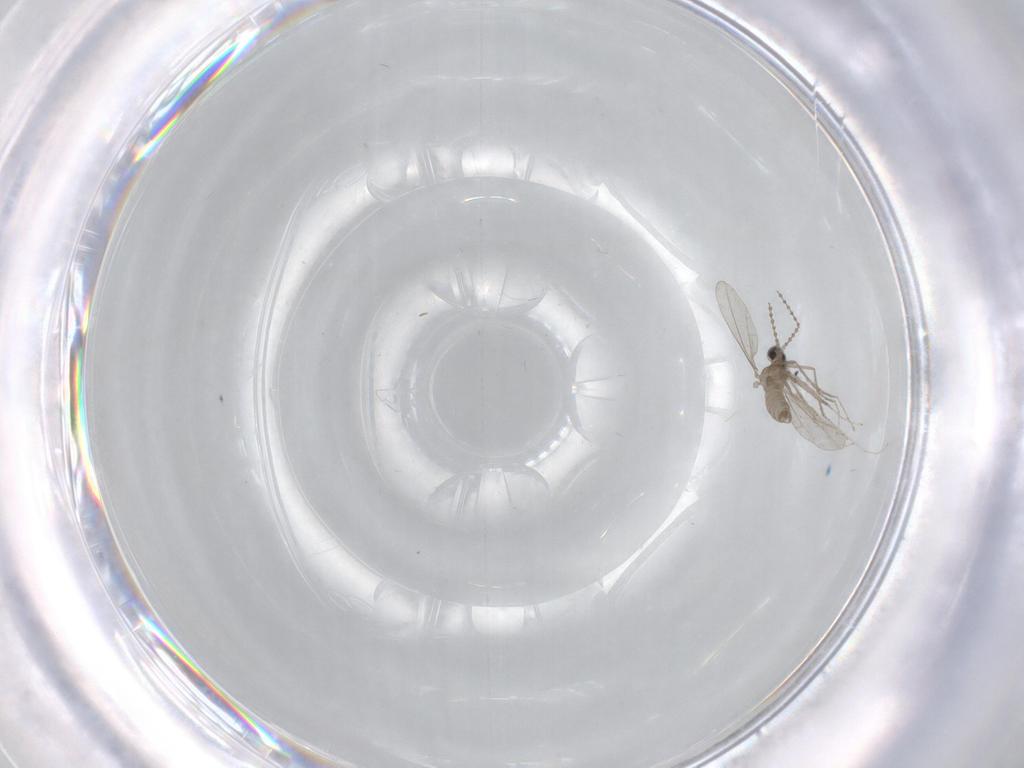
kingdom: Animalia
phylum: Arthropoda
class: Insecta
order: Diptera
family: Cecidomyiidae
